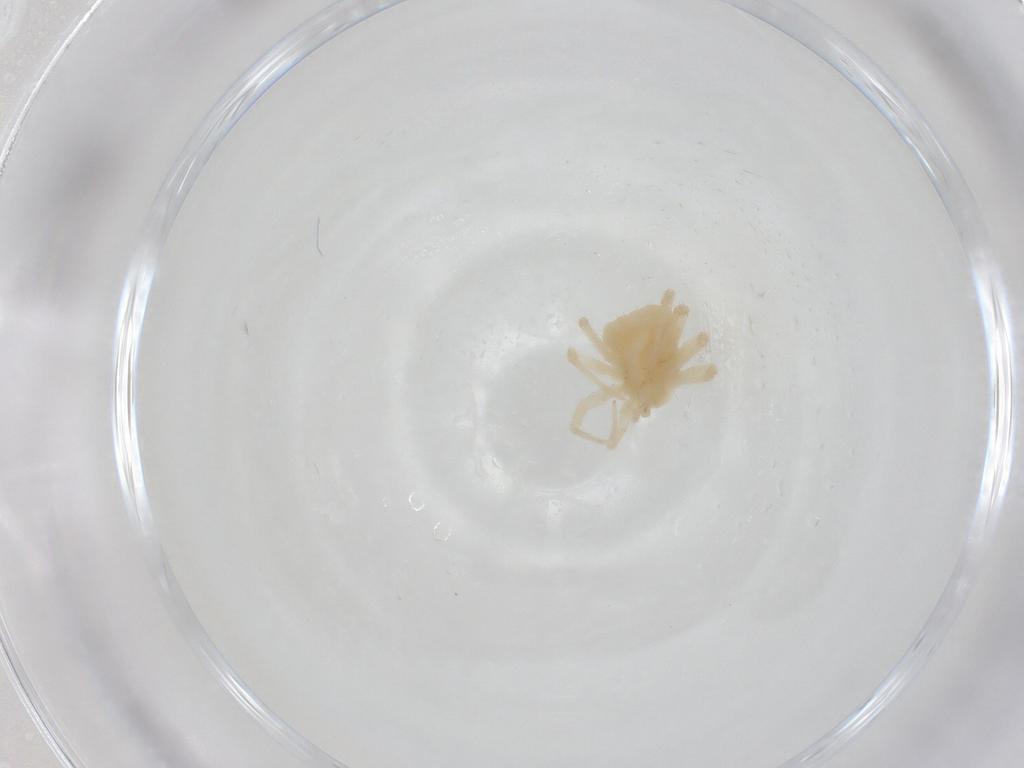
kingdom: Animalia
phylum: Arthropoda
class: Arachnida
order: Trombidiformes
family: Anystidae
